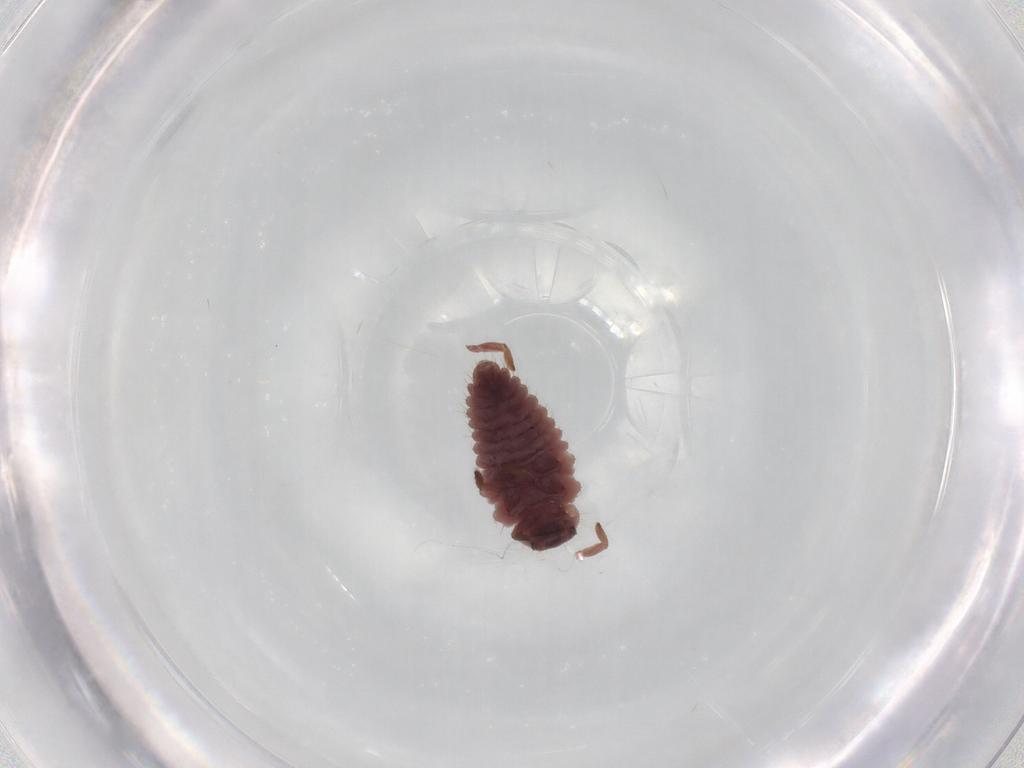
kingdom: Animalia
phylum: Arthropoda
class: Insecta
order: Coleoptera
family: Coccinellidae
